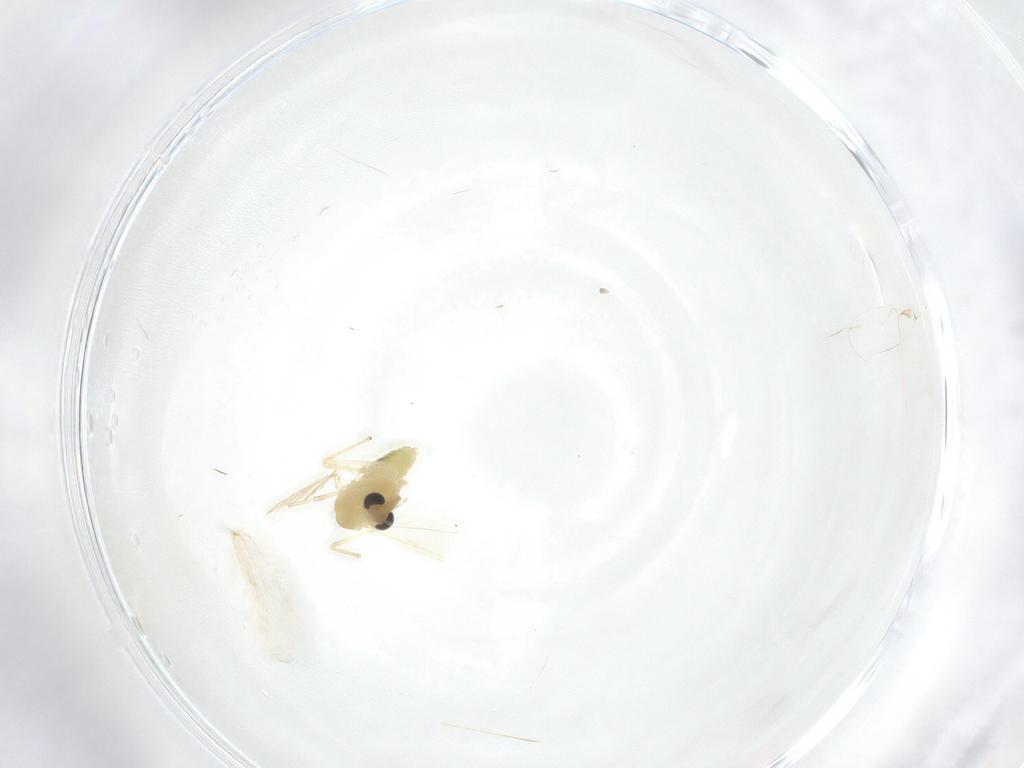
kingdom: Animalia
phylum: Arthropoda
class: Insecta
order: Diptera
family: Chironomidae
